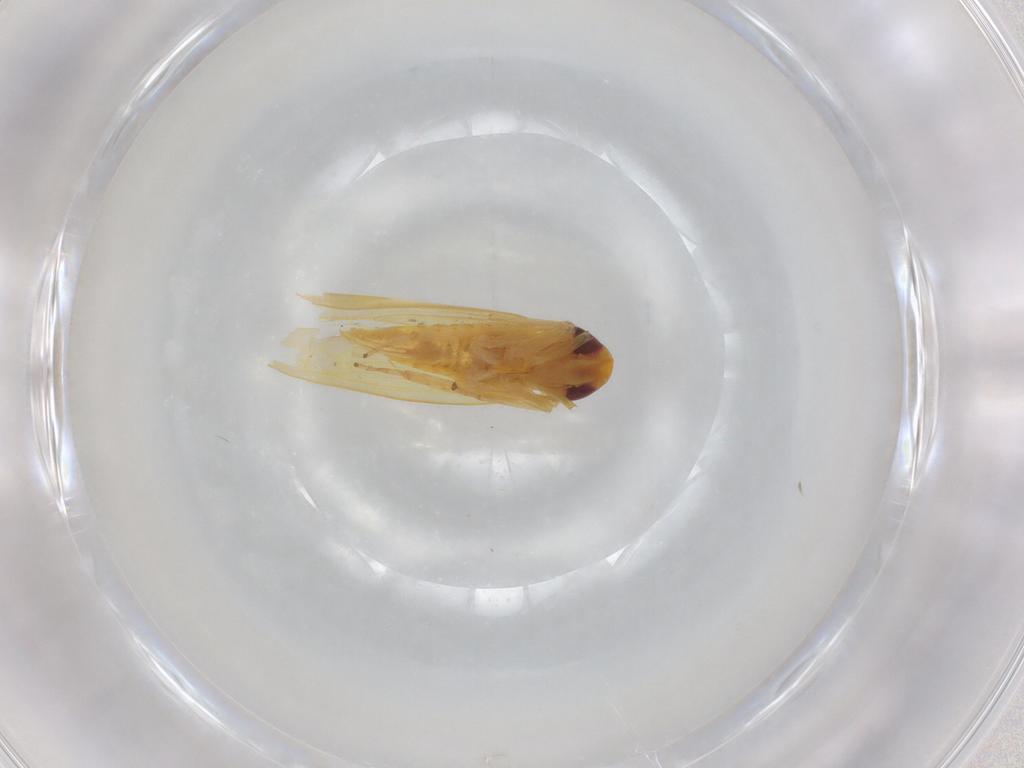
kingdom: Animalia
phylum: Arthropoda
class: Insecta
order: Hemiptera
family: Cicadellidae
